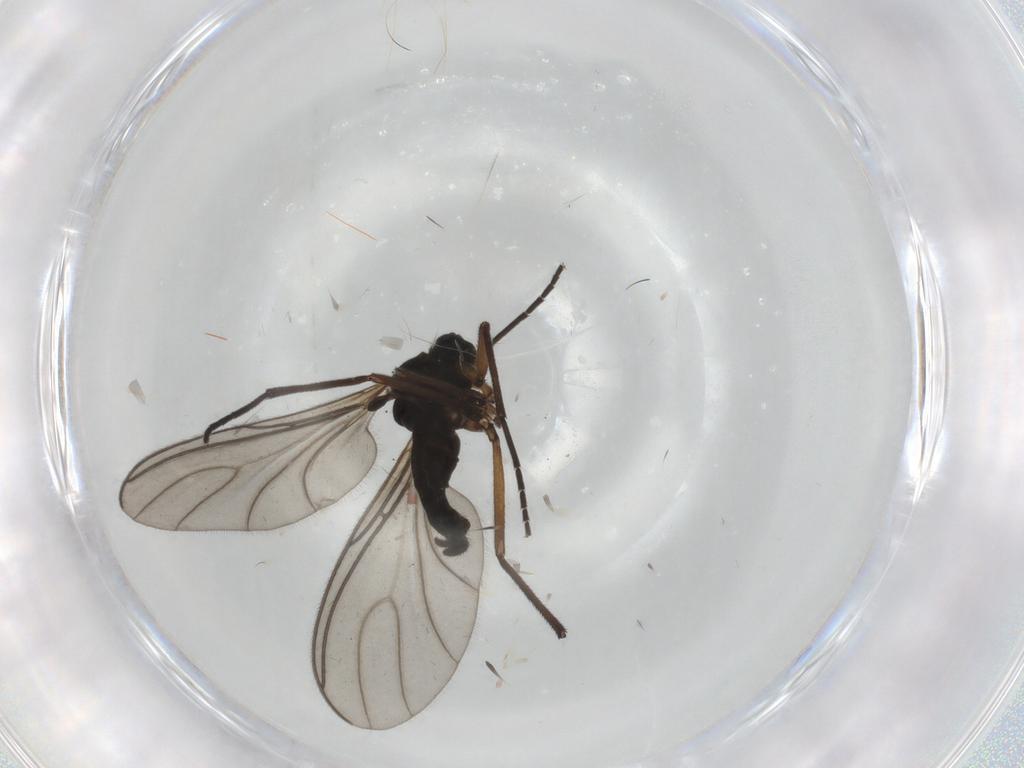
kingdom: Animalia
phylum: Arthropoda
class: Insecta
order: Diptera
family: Sciaridae
